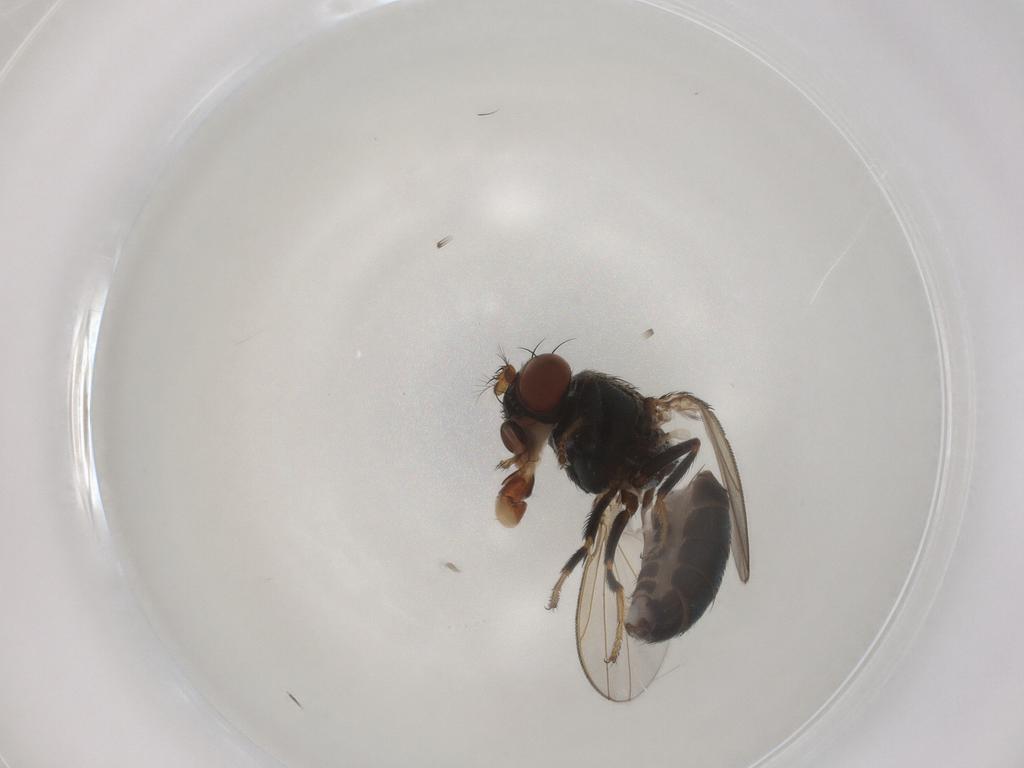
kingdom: Animalia
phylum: Arthropoda
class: Insecta
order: Diptera
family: Ephydridae
